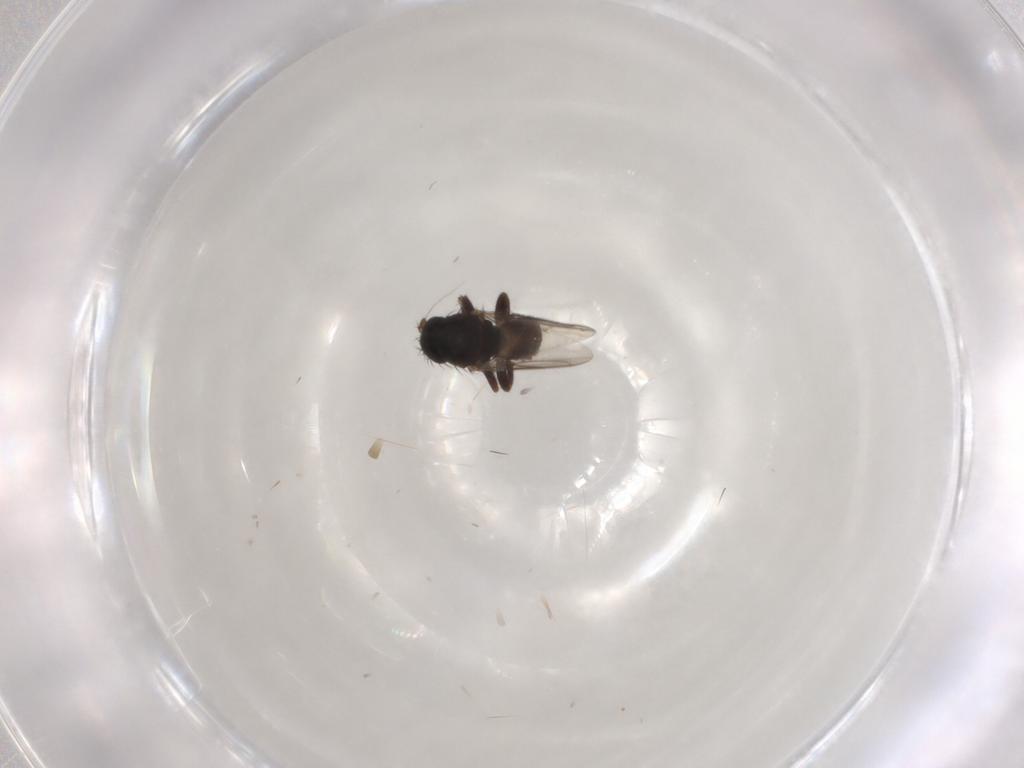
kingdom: Animalia
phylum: Arthropoda
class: Insecta
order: Diptera
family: Sphaeroceridae
